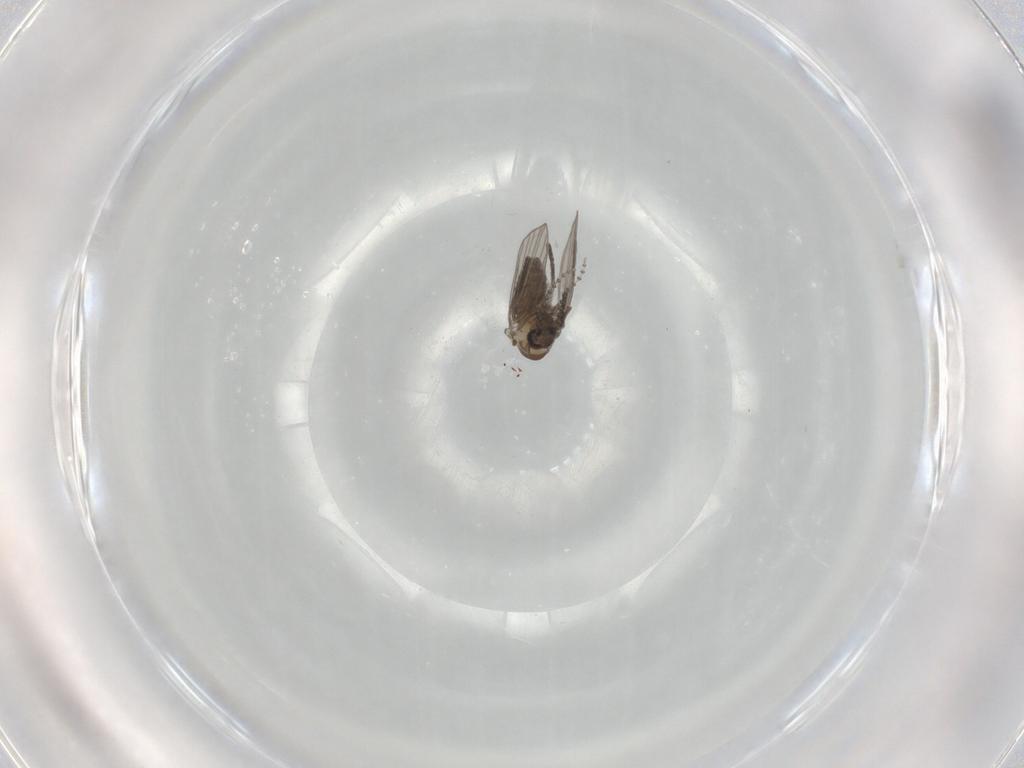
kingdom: Animalia
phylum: Arthropoda
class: Insecta
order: Diptera
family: Psychodidae
